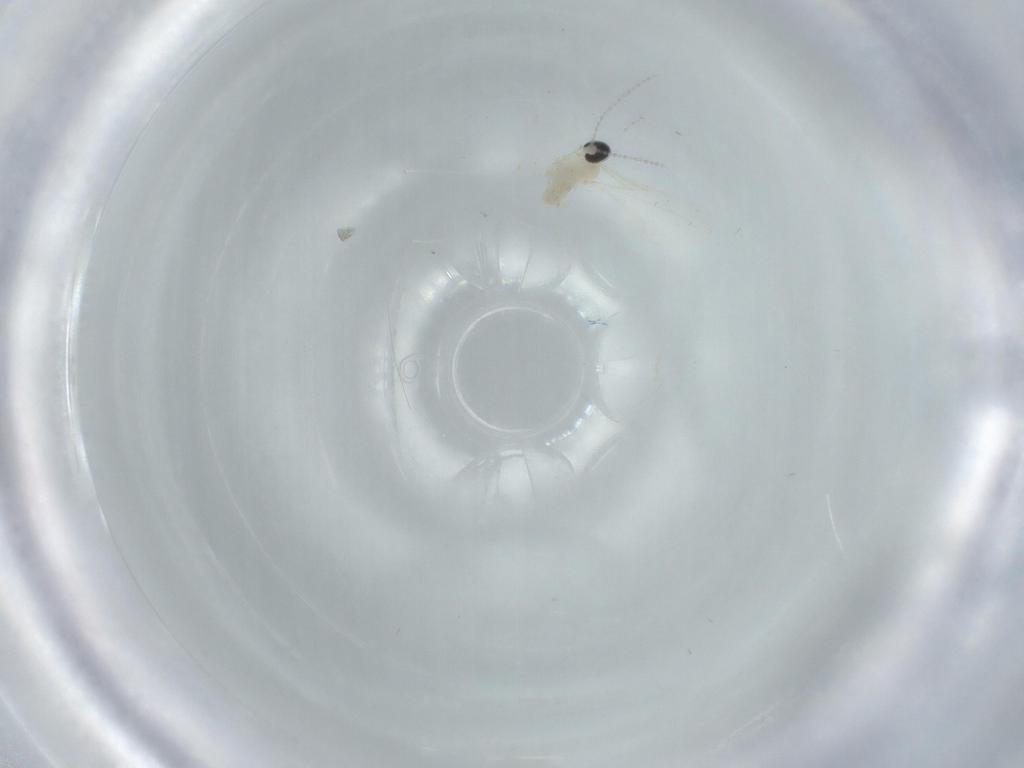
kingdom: Animalia
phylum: Arthropoda
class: Insecta
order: Diptera
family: Cecidomyiidae
